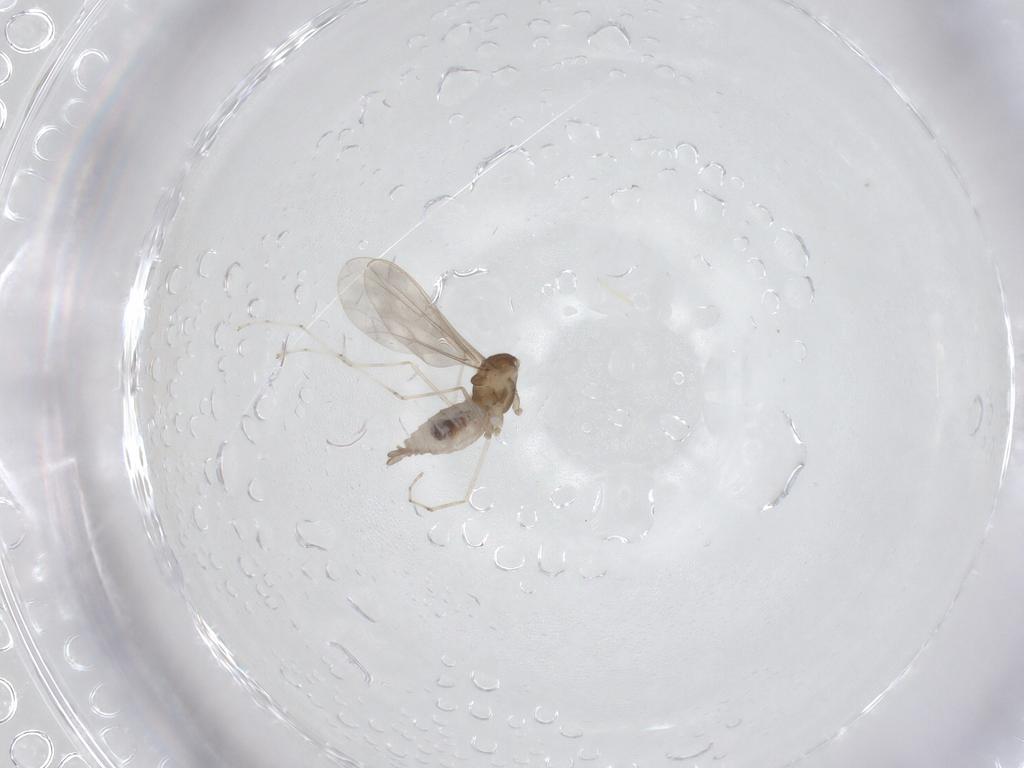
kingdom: Animalia
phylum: Arthropoda
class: Insecta
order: Diptera
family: Cecidomyiidae
